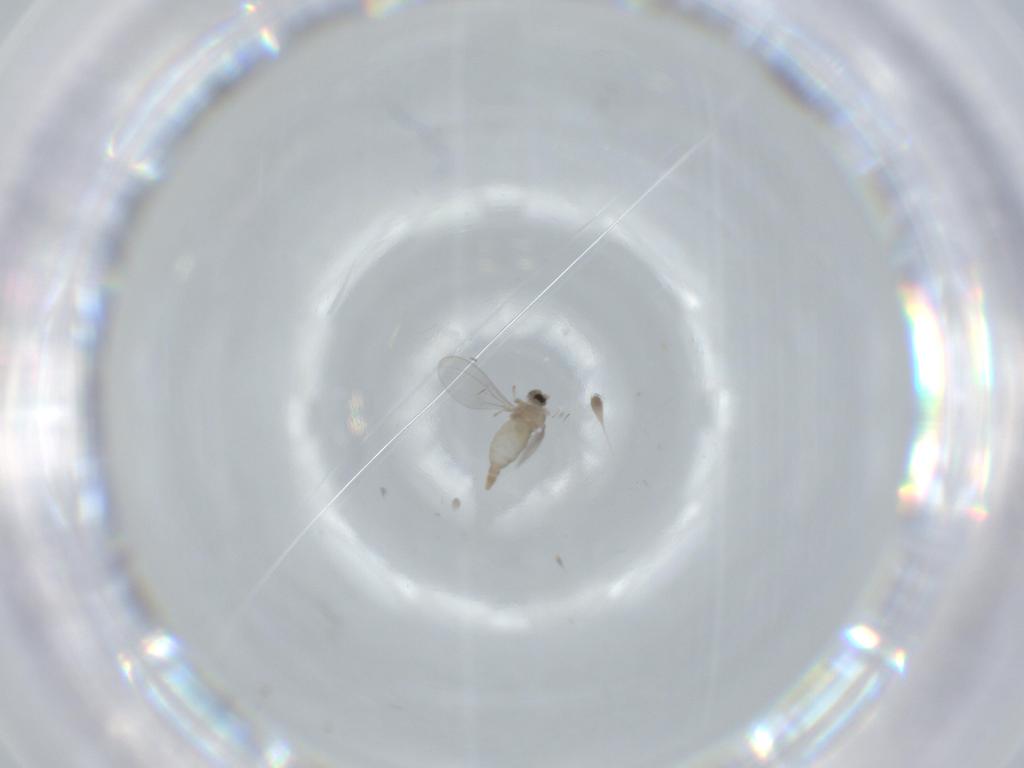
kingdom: Animalia
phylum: Arthropoda
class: Insecta
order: Diptera
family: Cecidomyiidae
